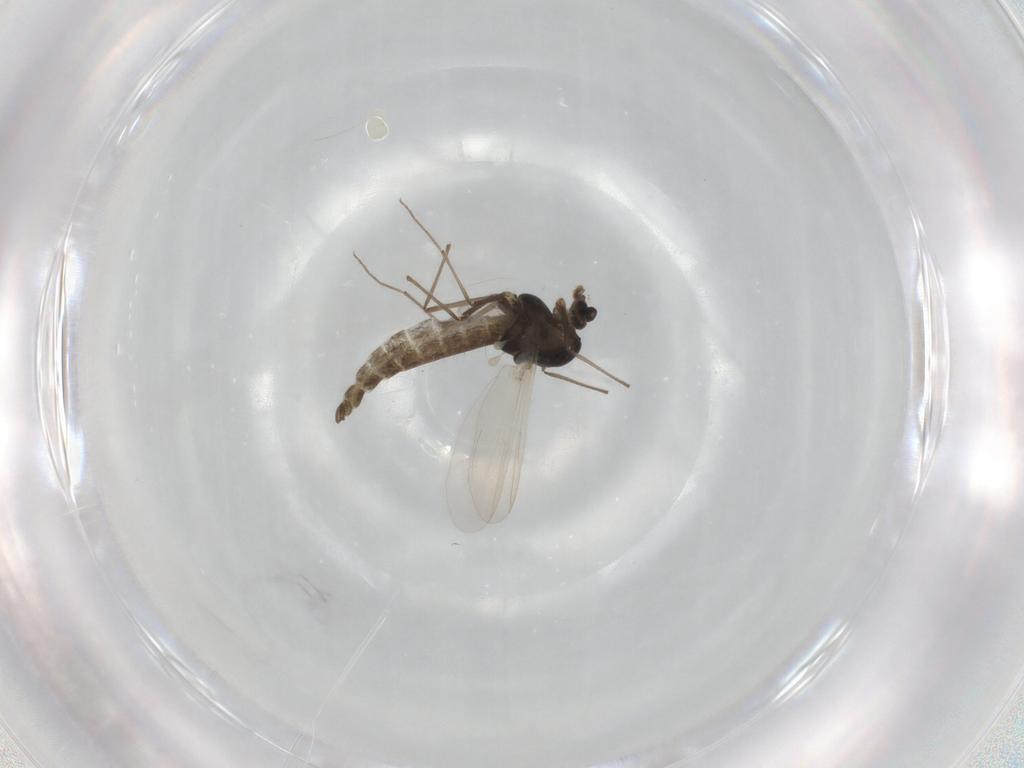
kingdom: Animalia
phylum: Arthropoda
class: Insecta
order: Diptera
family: Chironomidae
